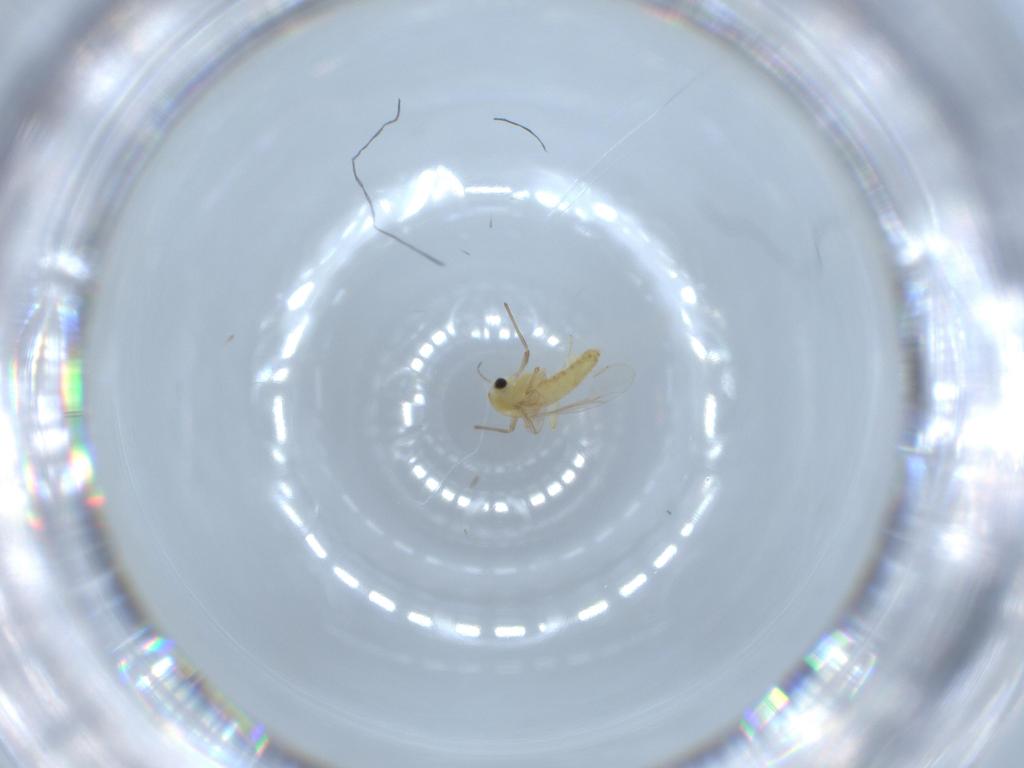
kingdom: Animalia
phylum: Arthropoda
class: Insecta
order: Diptera
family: Chironomidae
